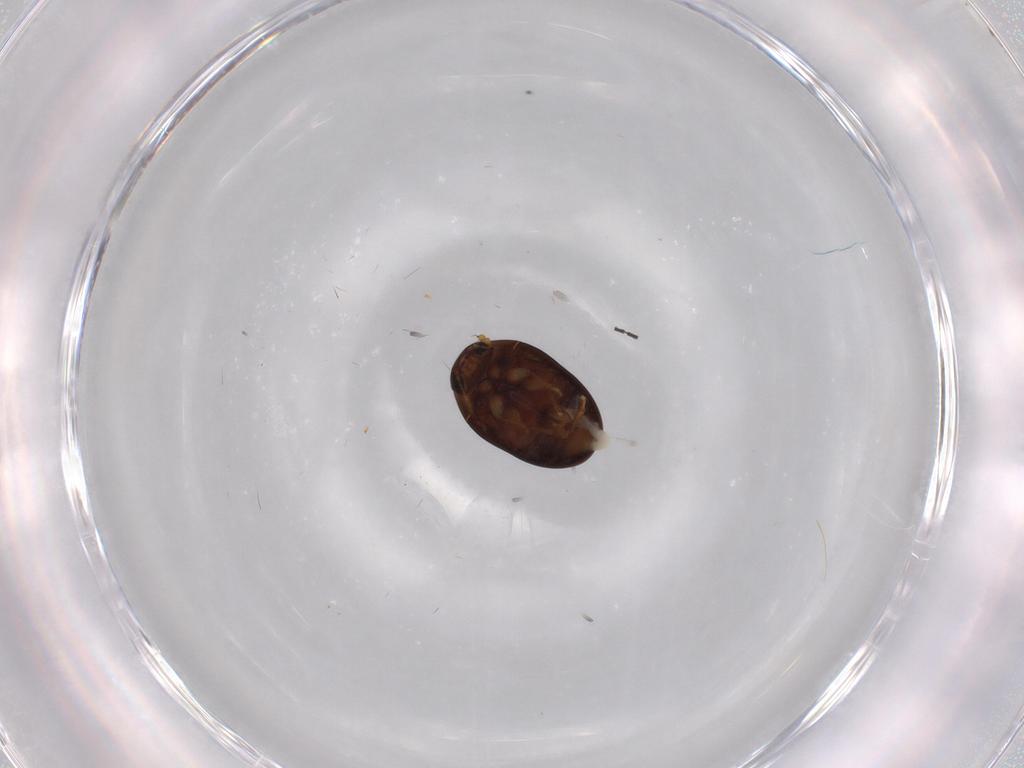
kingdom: Animalia
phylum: Arthropoda
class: Insecta
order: Coleoptera
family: Phalacridae
